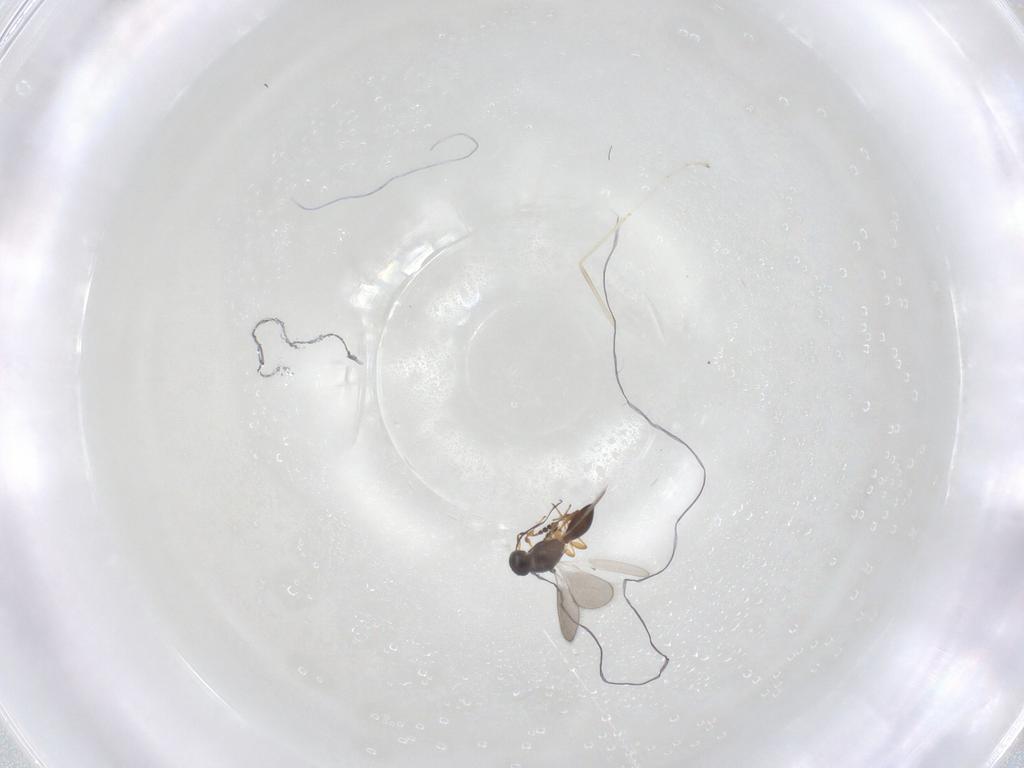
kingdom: Animalia
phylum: Arthropoda
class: Insecta
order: Hymenoptera
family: Platygastridae
